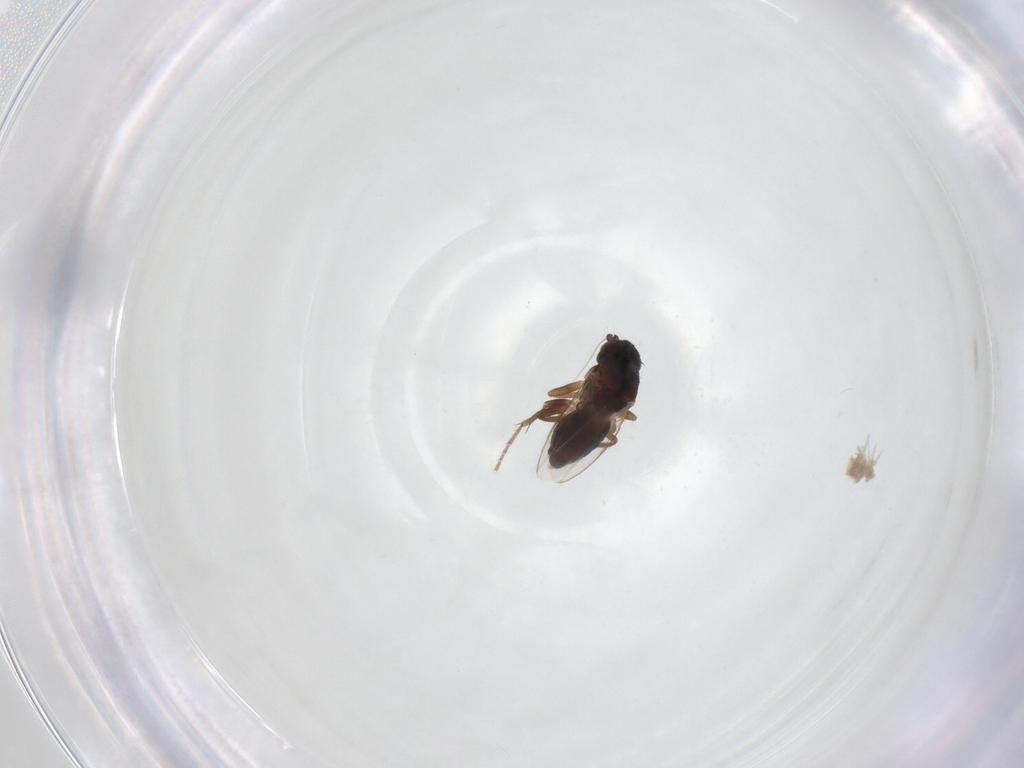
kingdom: Animalia
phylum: Arthropoda
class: Insecta
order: Diptera
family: Sphaeroceridae
